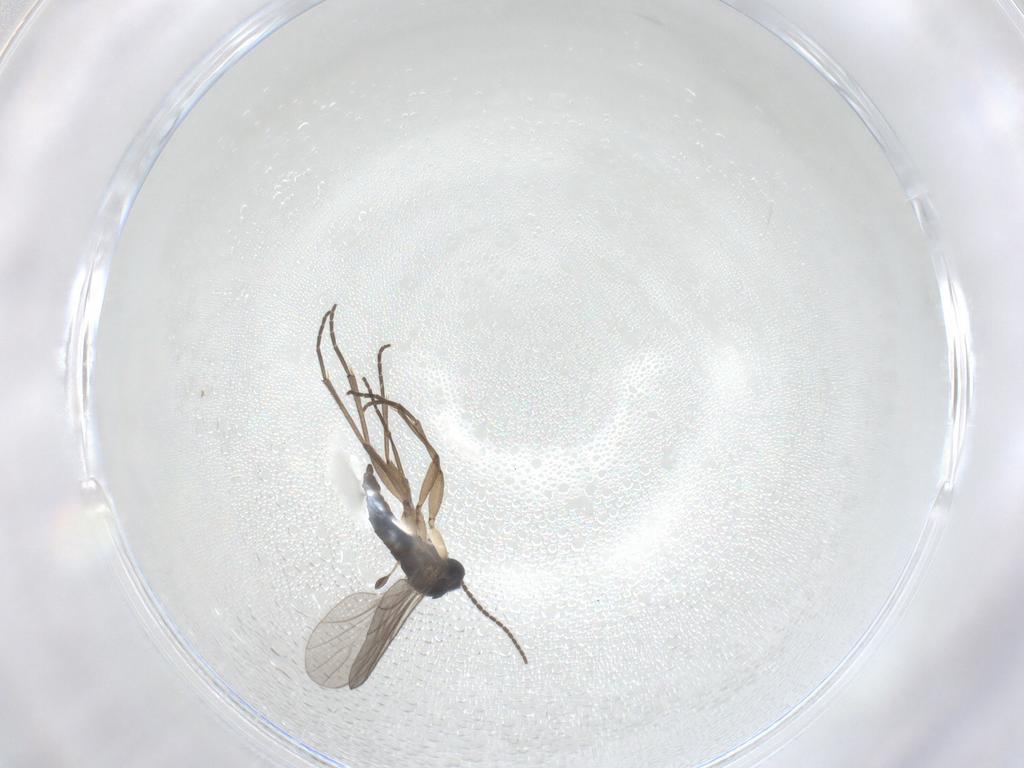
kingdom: Animalia
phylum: Arthropoda
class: Insecta
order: Diptera
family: Sciaridae
